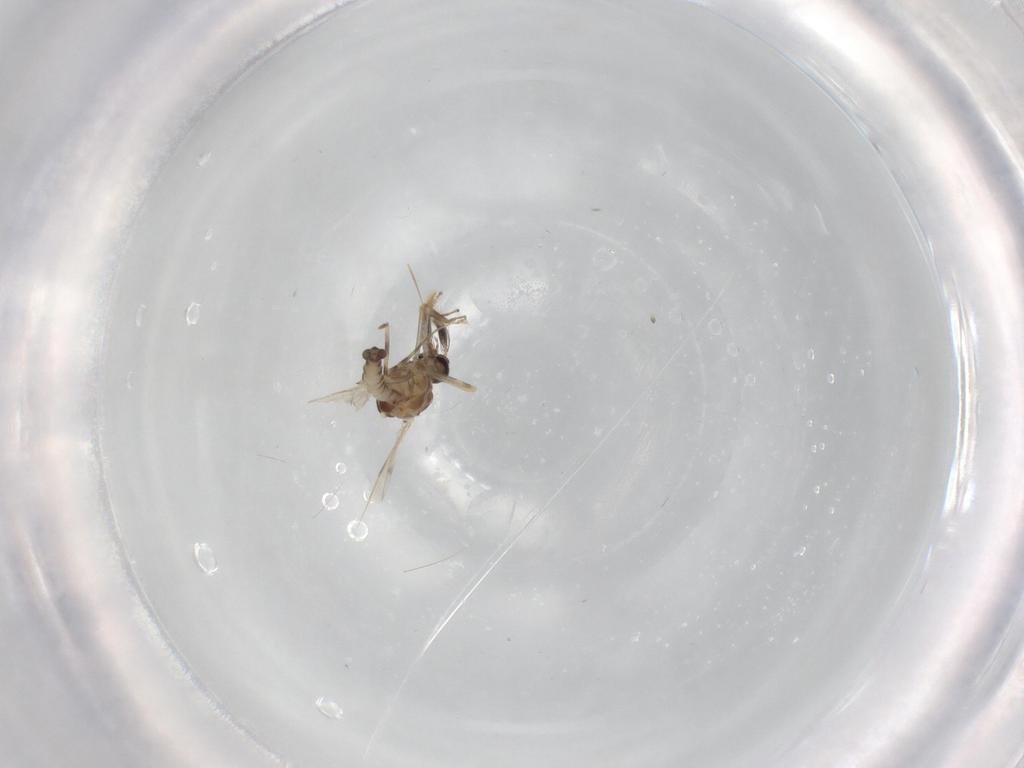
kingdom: Animalia
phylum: Arthropoda
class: Insecta
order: Diptera
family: Ceratopogonidae
